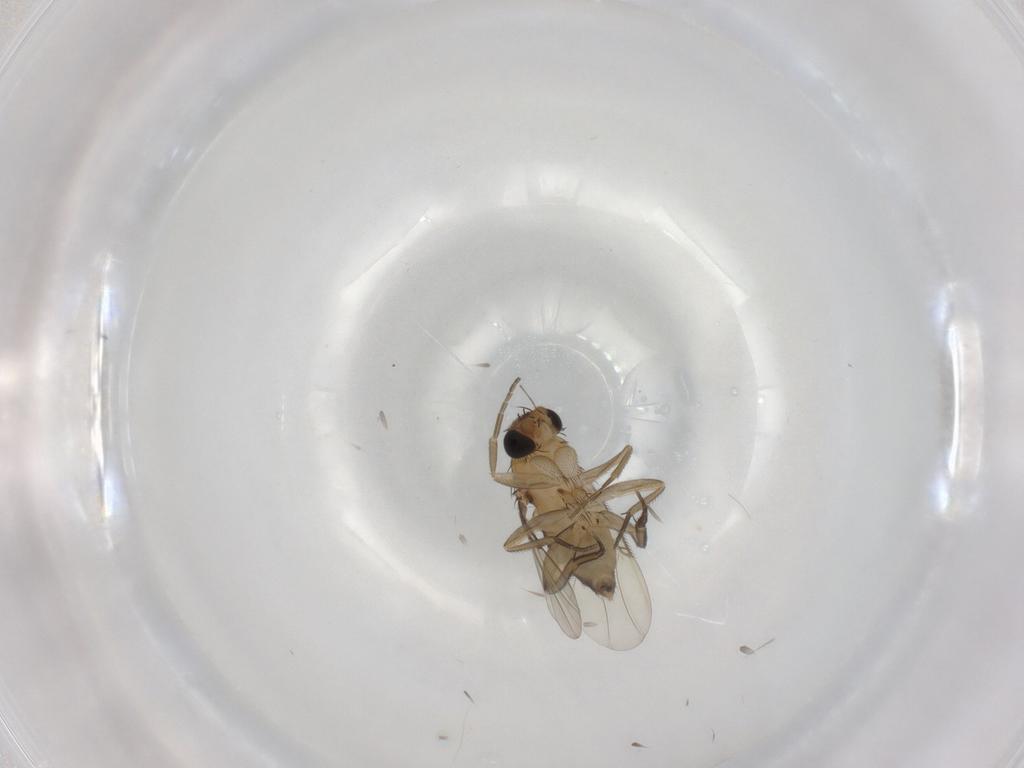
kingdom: Animalia
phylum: Arthropoda
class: Insecta
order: Diptera
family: Phoridae
